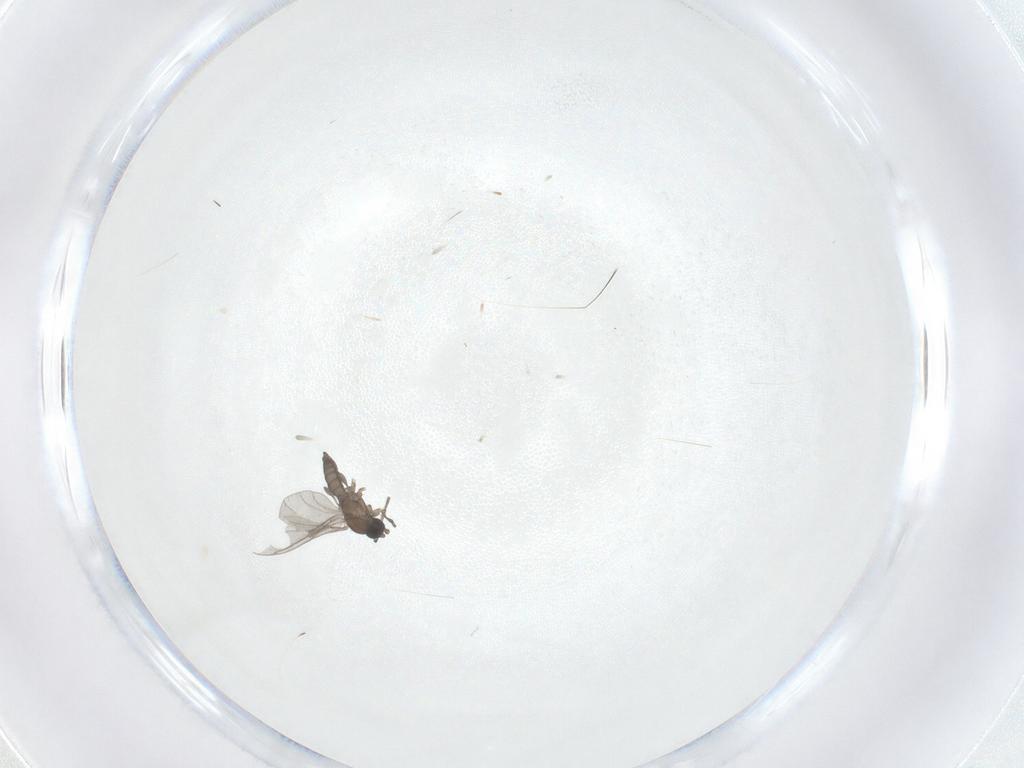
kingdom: Animalia
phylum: Arthropoda
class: Insecta
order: Diptera
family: Sciaridae
